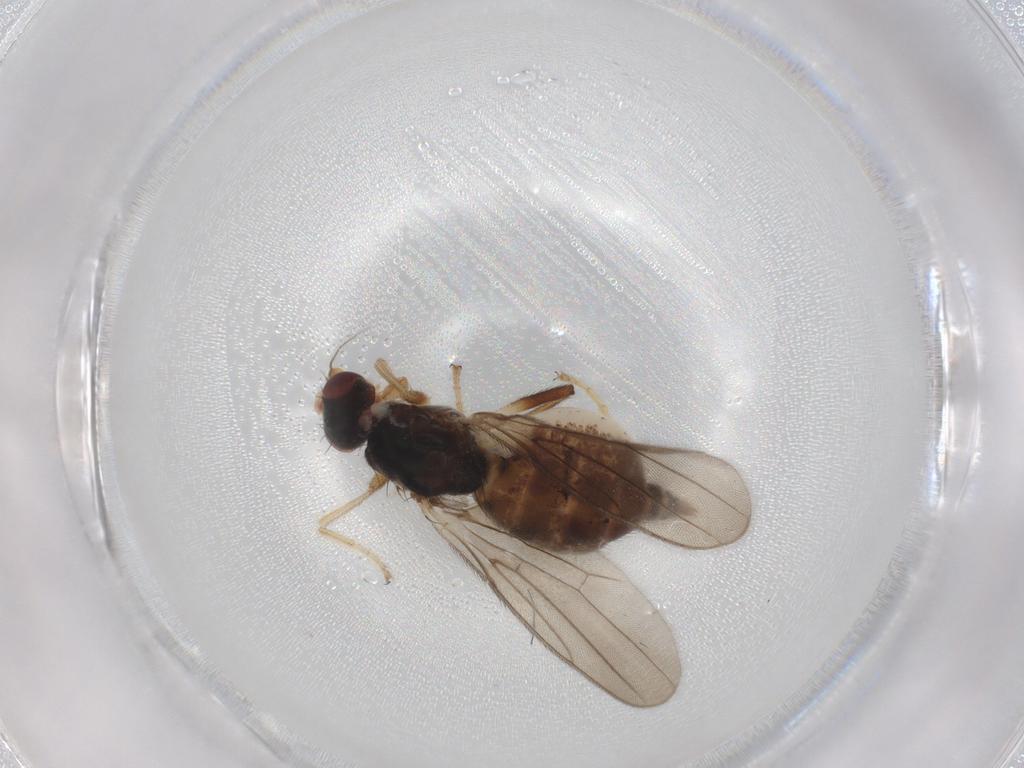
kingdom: Animalia
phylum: Arthropoda
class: Insecta
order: Diptera
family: Chloropidae
